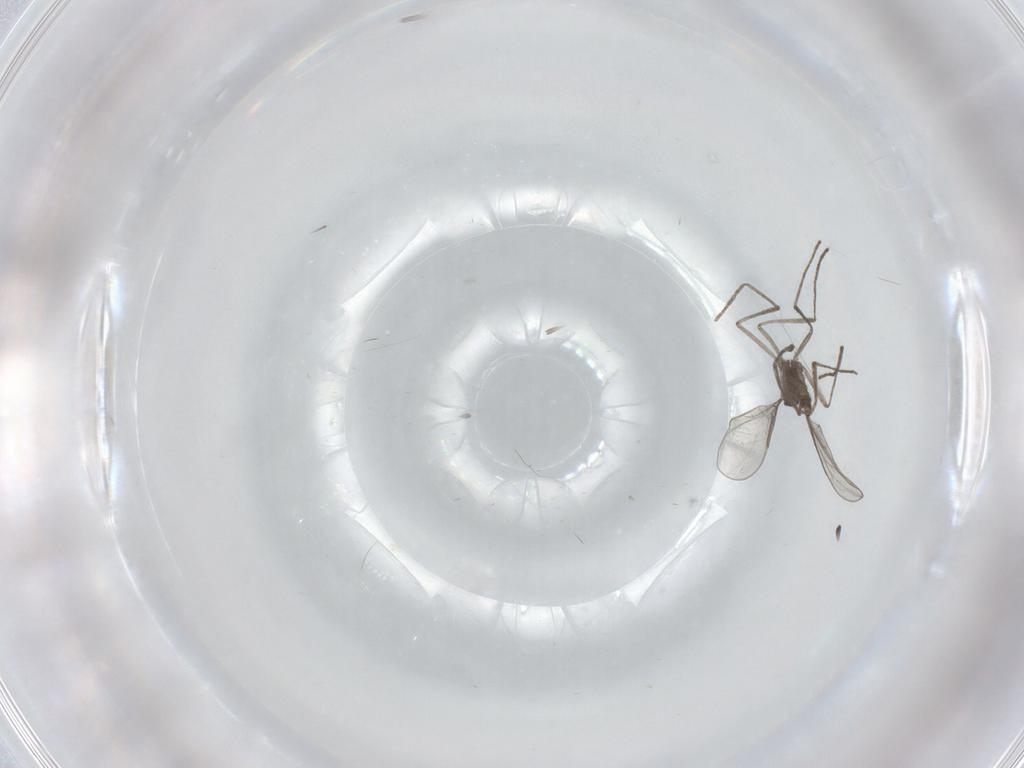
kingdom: Animalia
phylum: Arthropoda
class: Insecta
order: Diptera
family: Cecidomyiidae
